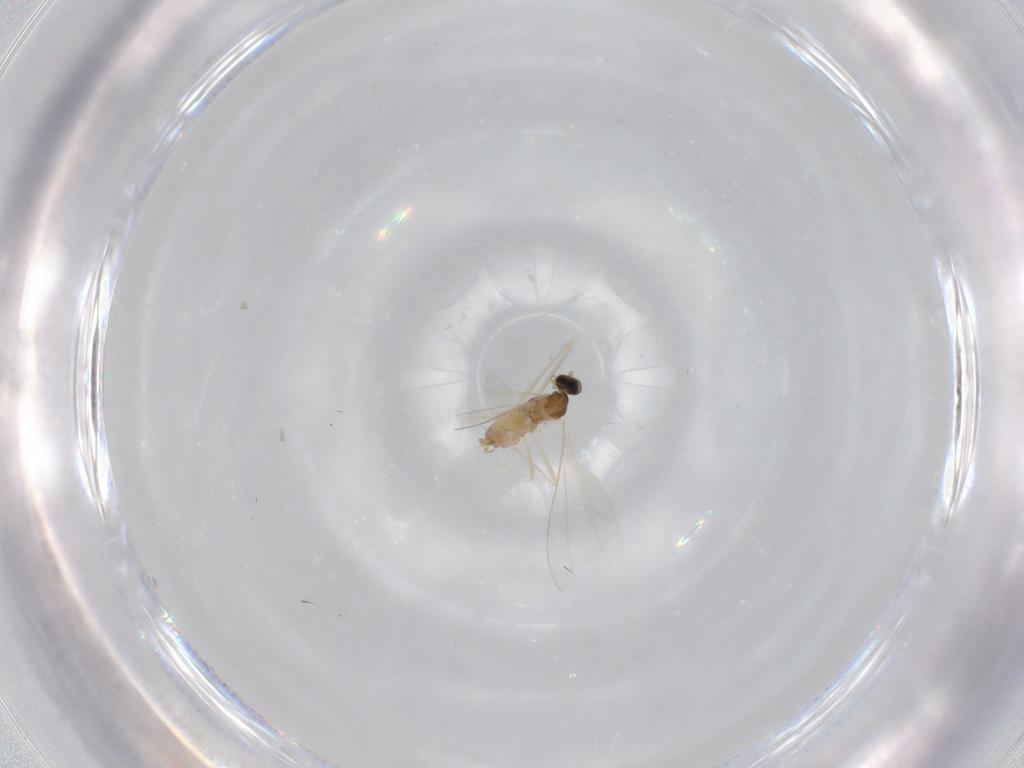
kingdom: Animalia
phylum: Arthropoda
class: Insecta
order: Diptera
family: Cecidomyiidae
